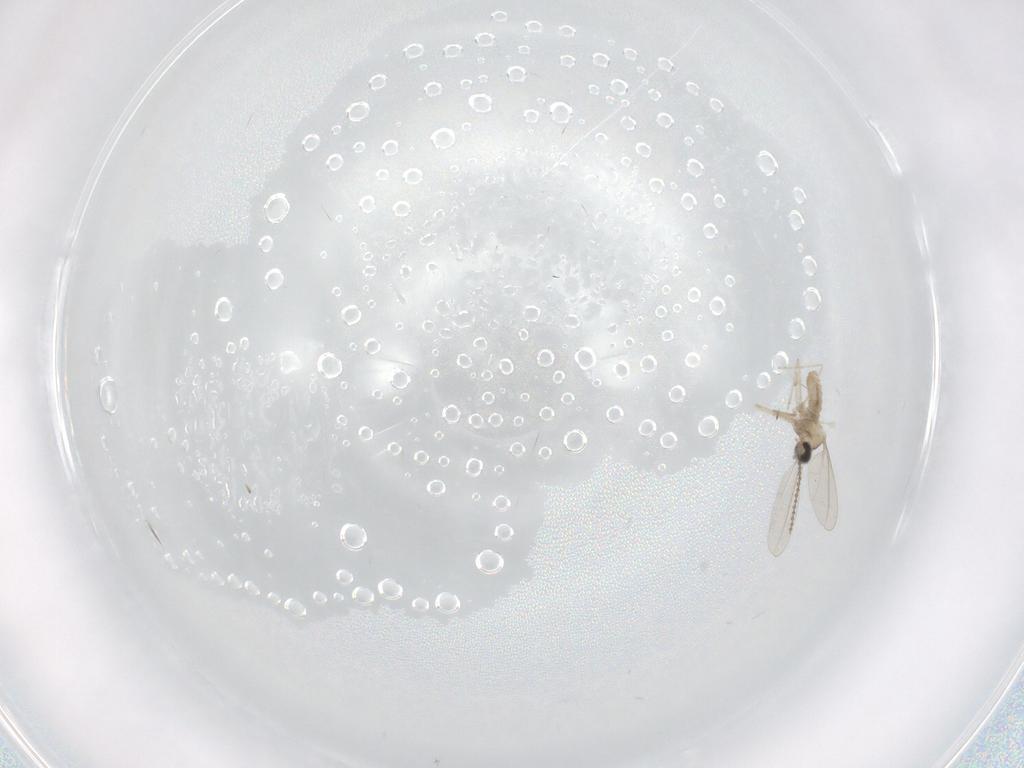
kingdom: Animalia
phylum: Arthropoda
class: Insecta
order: Diptera
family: Cecidomyiidae
